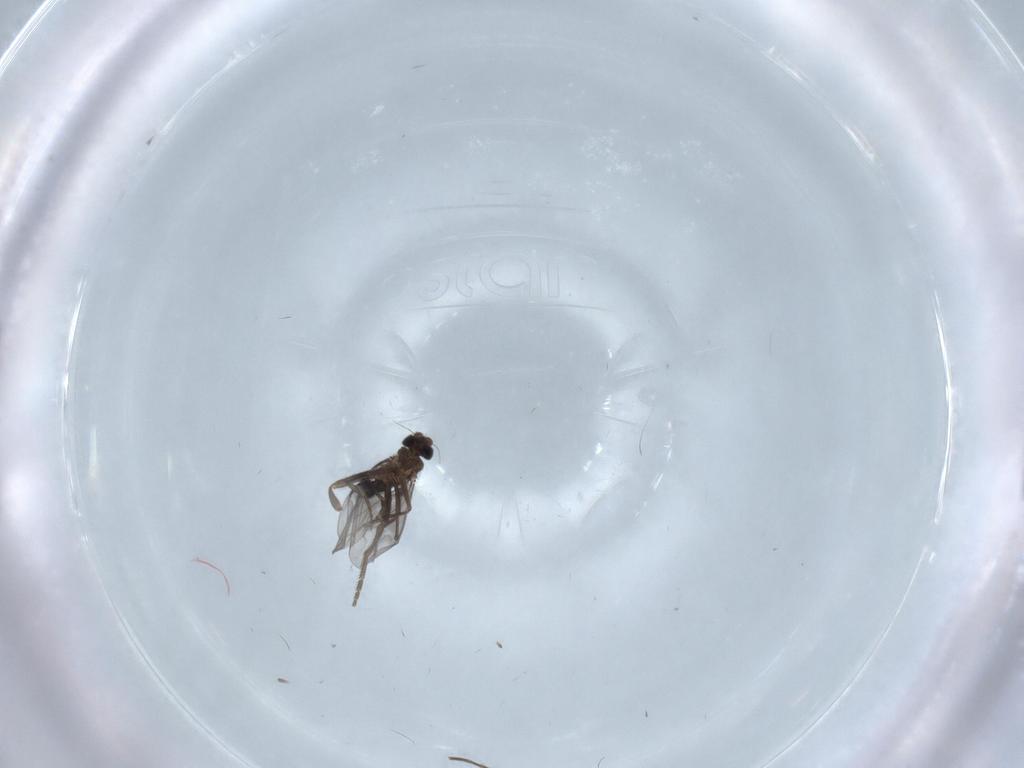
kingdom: Animalia
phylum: Arthropoda
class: Insecta
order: Diptera
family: Phoridae
